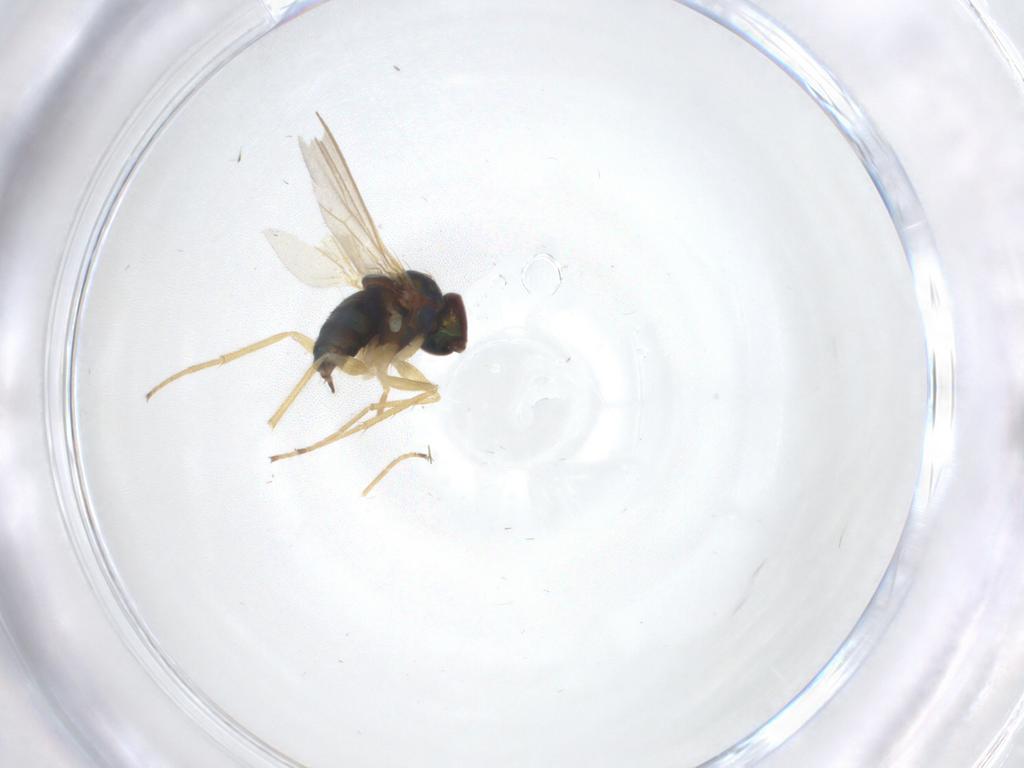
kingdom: Animalia
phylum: Arthropoda
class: Insecta
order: Diptera
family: Dolichopodidae
